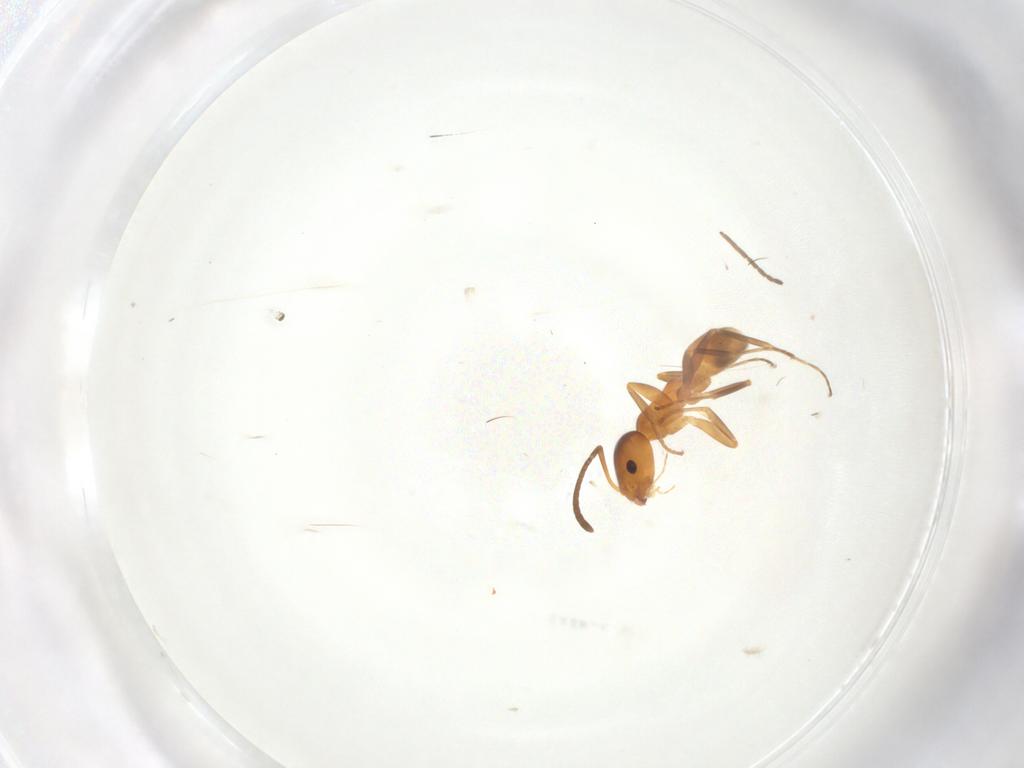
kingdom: Animalia
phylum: Arthropoda
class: Insecta
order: Hymenoptera
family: Formicidae
